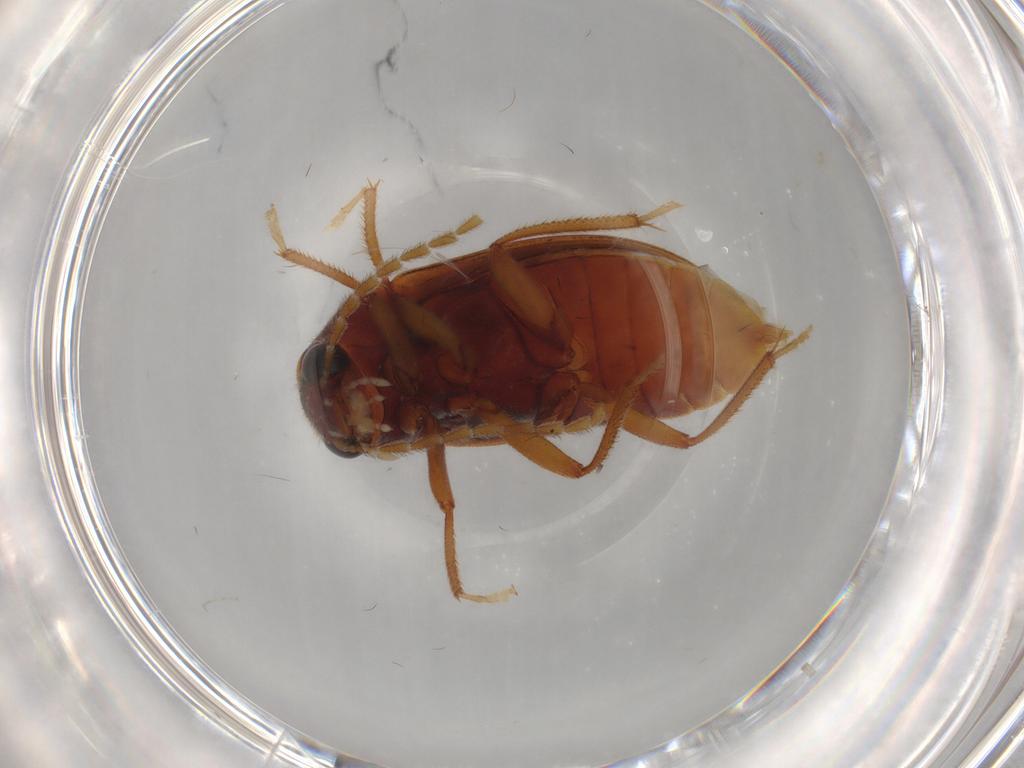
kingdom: Animalia
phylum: Arthropoda
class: Insecta
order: Coleoptera
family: Ptilodactylidae
